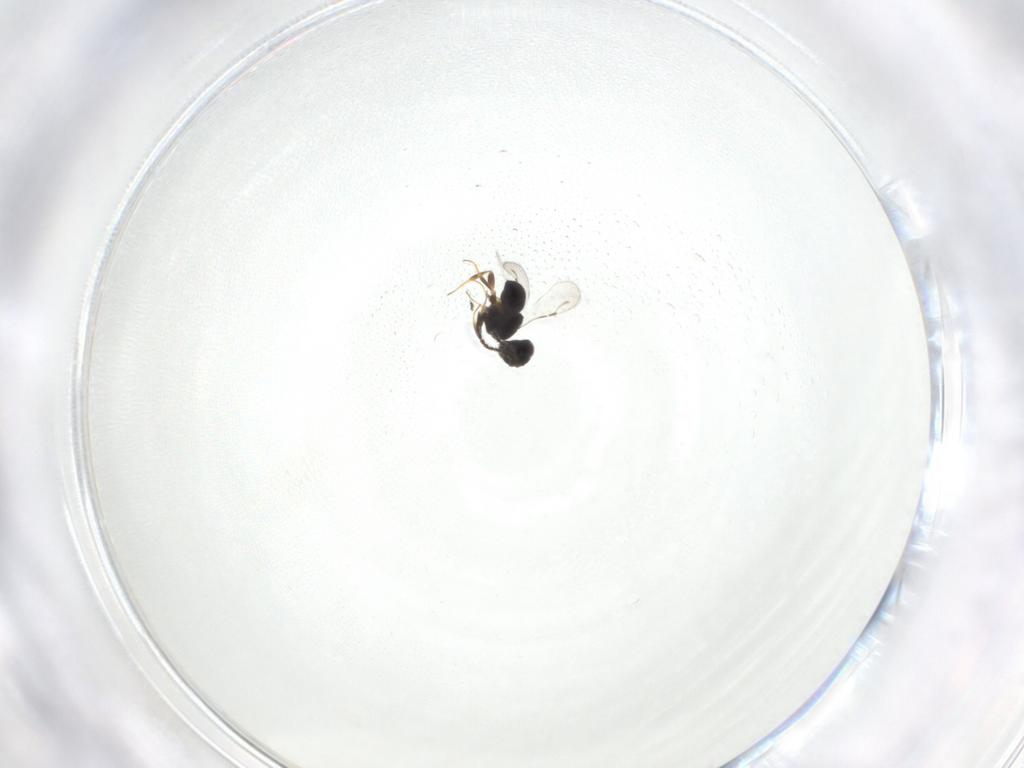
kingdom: Animalia
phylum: Arthropoda
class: Insecta
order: Hymenoptera
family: Ceraphronidae
